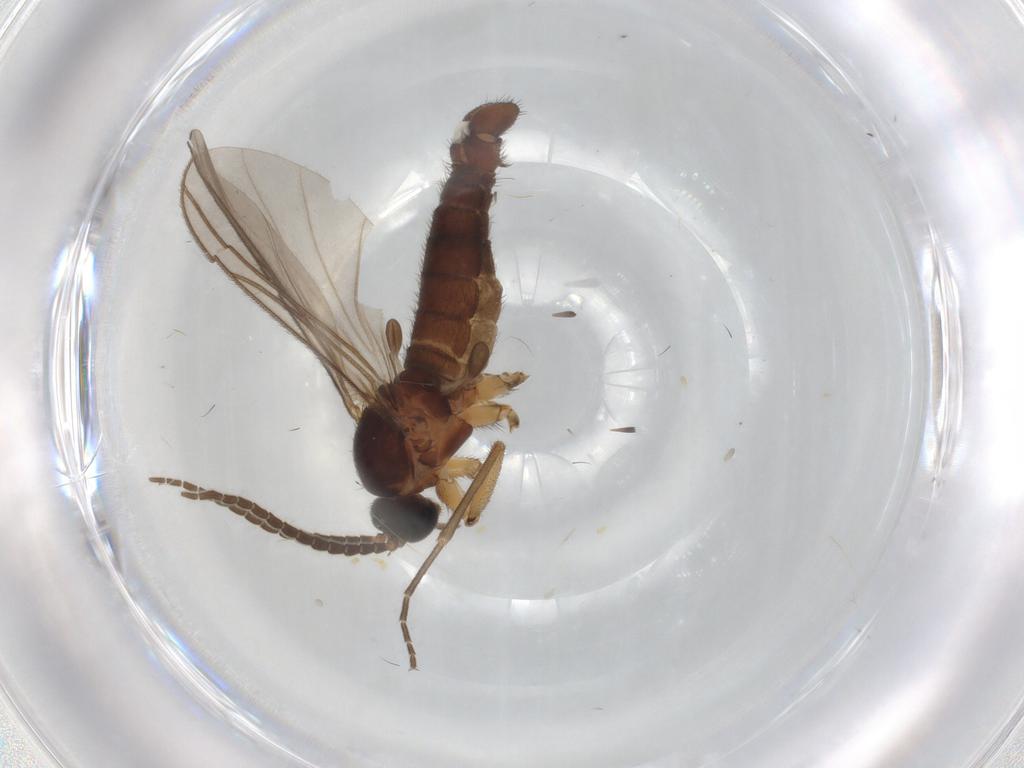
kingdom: Animalia
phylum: Arthropoda
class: Insecta
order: Diptera
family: Sciaridae
